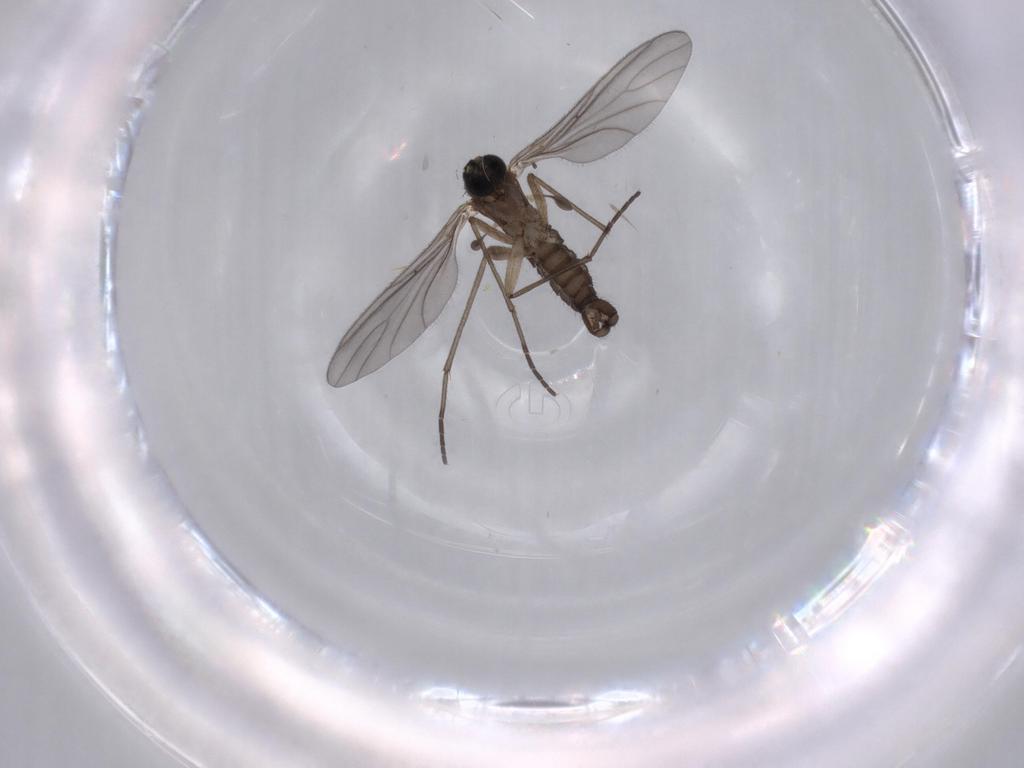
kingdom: Animalia
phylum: Arthropoda
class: Insecta
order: Diptera
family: Sciaridae
